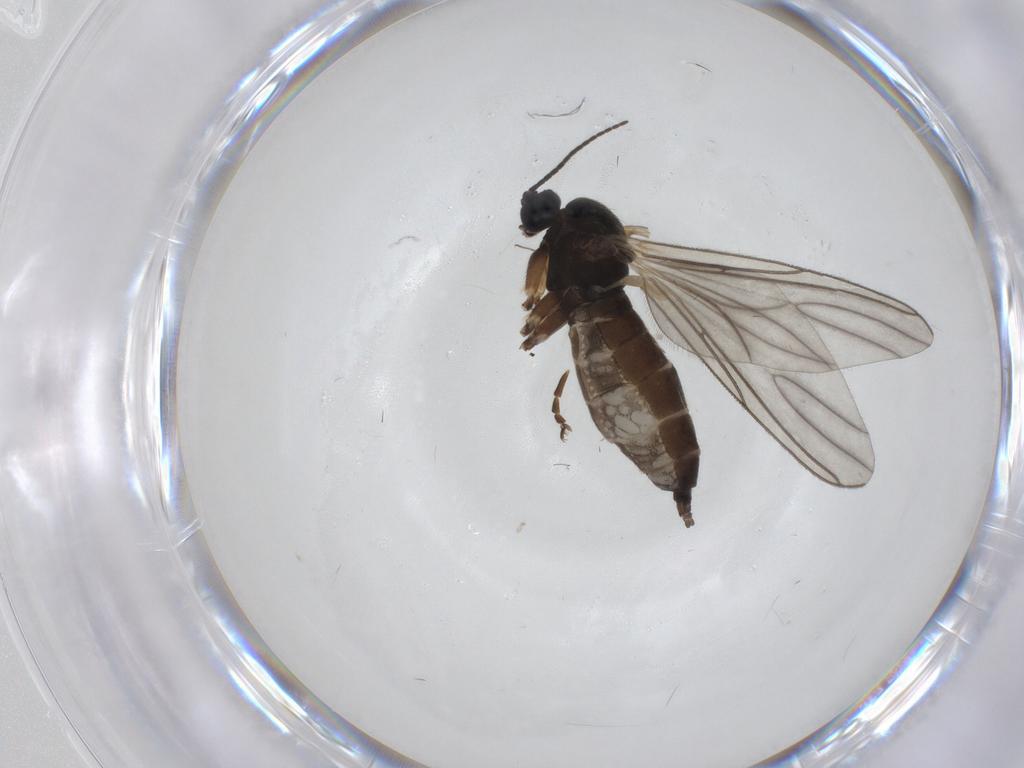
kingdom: Animalia
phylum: Arthropoda
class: Insecta
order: Diptera
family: Sciaridae
